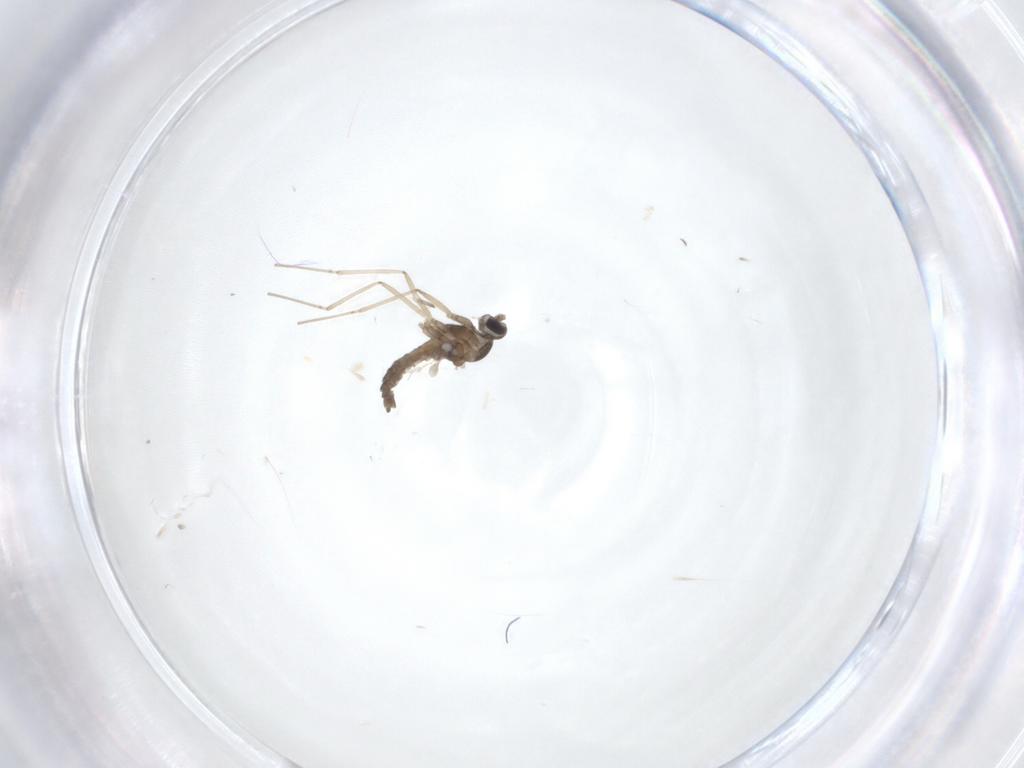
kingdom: Animalia
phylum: Arthropoda
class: Insecta
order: Diptera
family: Cecidomyiidae
